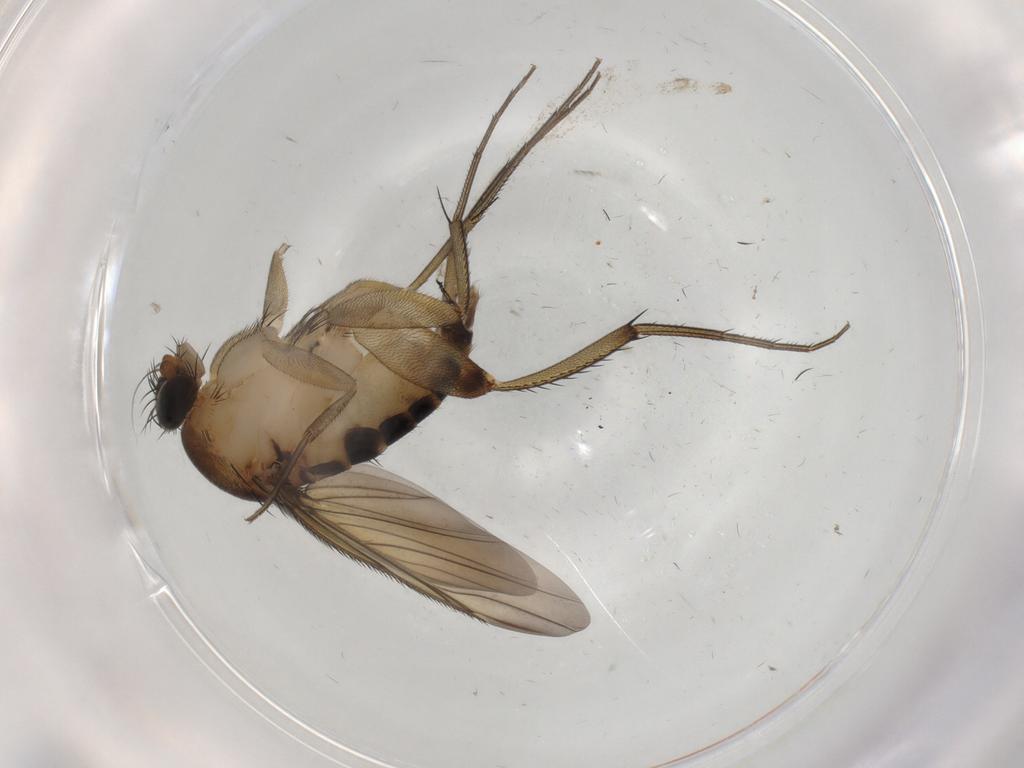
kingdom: Animalia
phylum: Arthropoda
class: Insecta
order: Diptera
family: Phoridae
